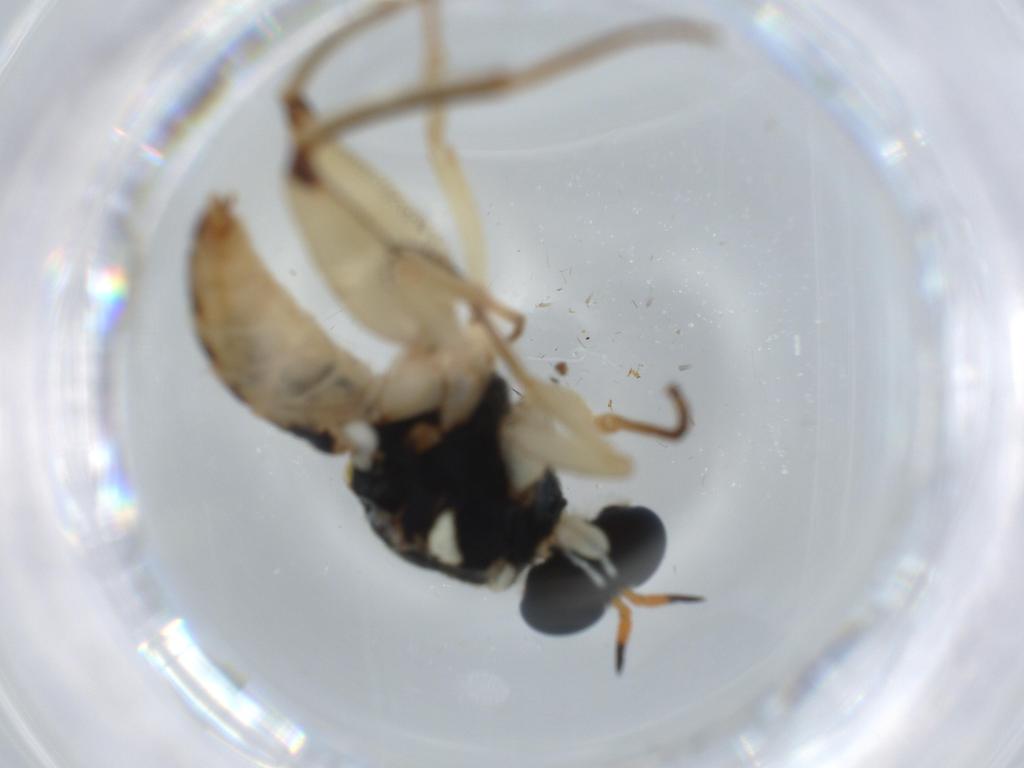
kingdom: Animalia
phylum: Arthropoda
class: Insecta
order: Diptera
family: Phoridae
